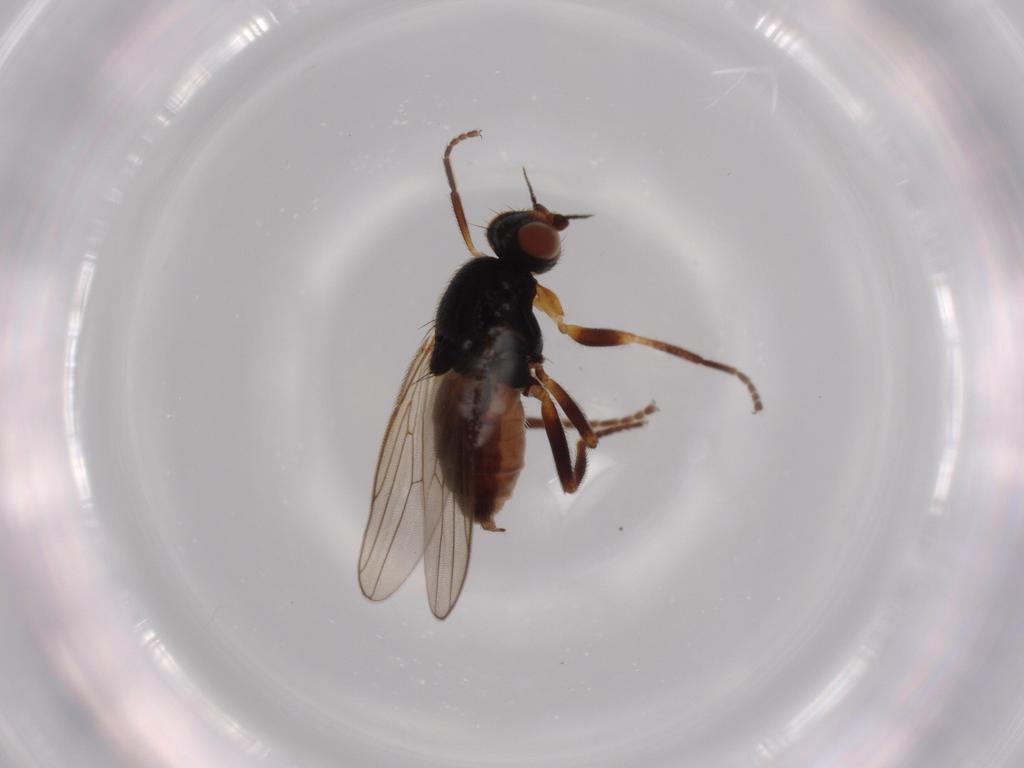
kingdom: Animalia
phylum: Arthropoda
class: Insecta
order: Diptera
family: Chloropidae
